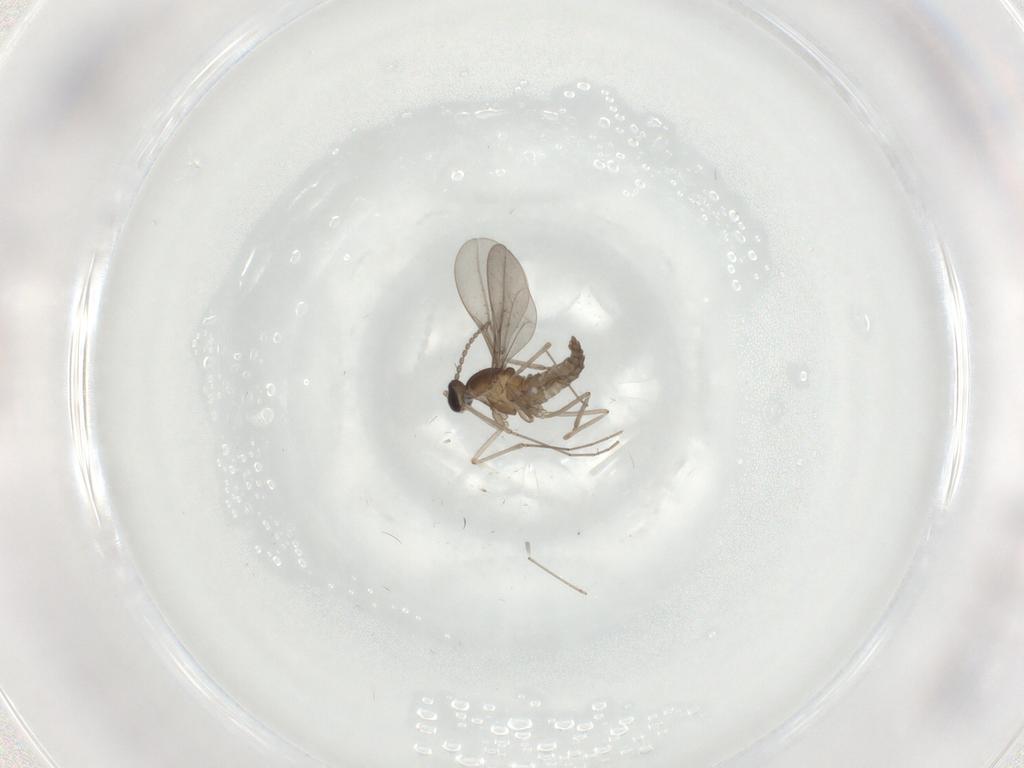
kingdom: Animalia
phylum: Arthropoda
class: Insecta
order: Diptera
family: Cecidomyiidae
